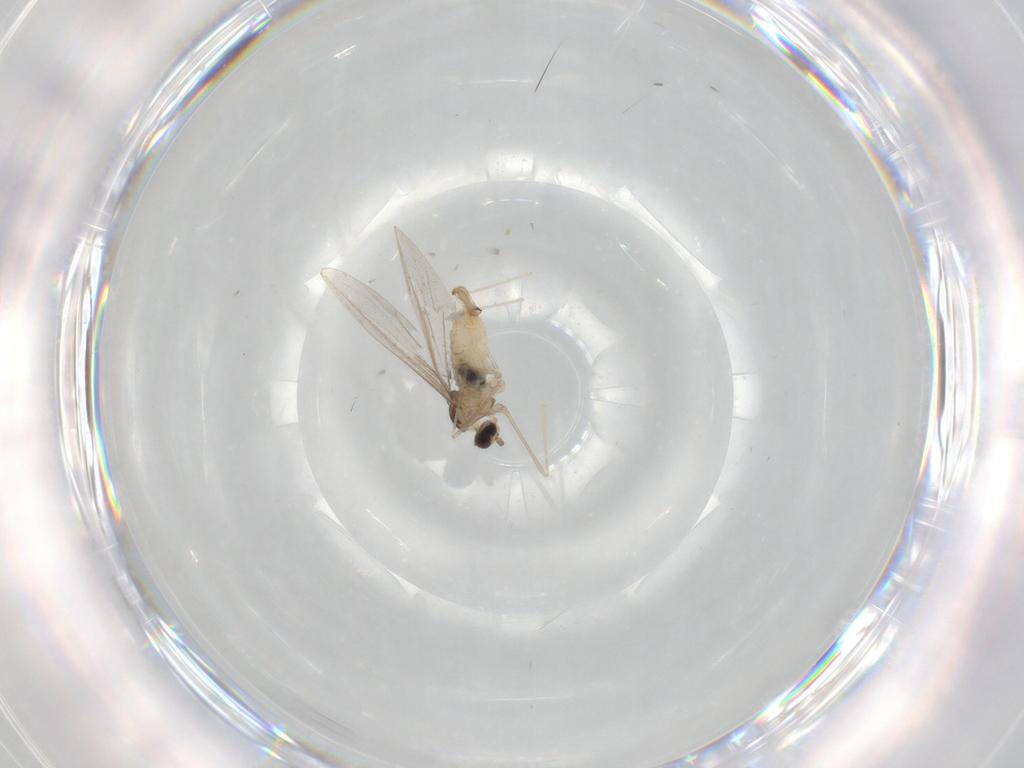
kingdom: Animalia
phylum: Arthropoda
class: Insecta
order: Diptera
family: Cecidomyiidae
